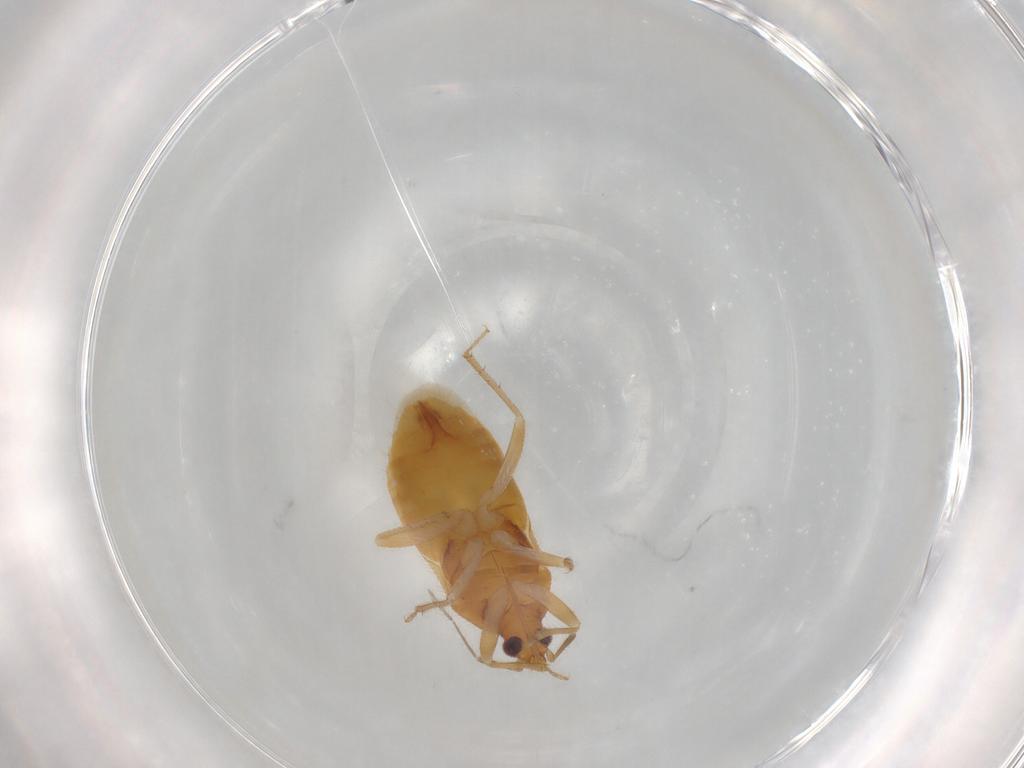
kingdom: Animalia
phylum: Arthropoda
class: Insecta
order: Hemiptera
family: Lasiochilidae
